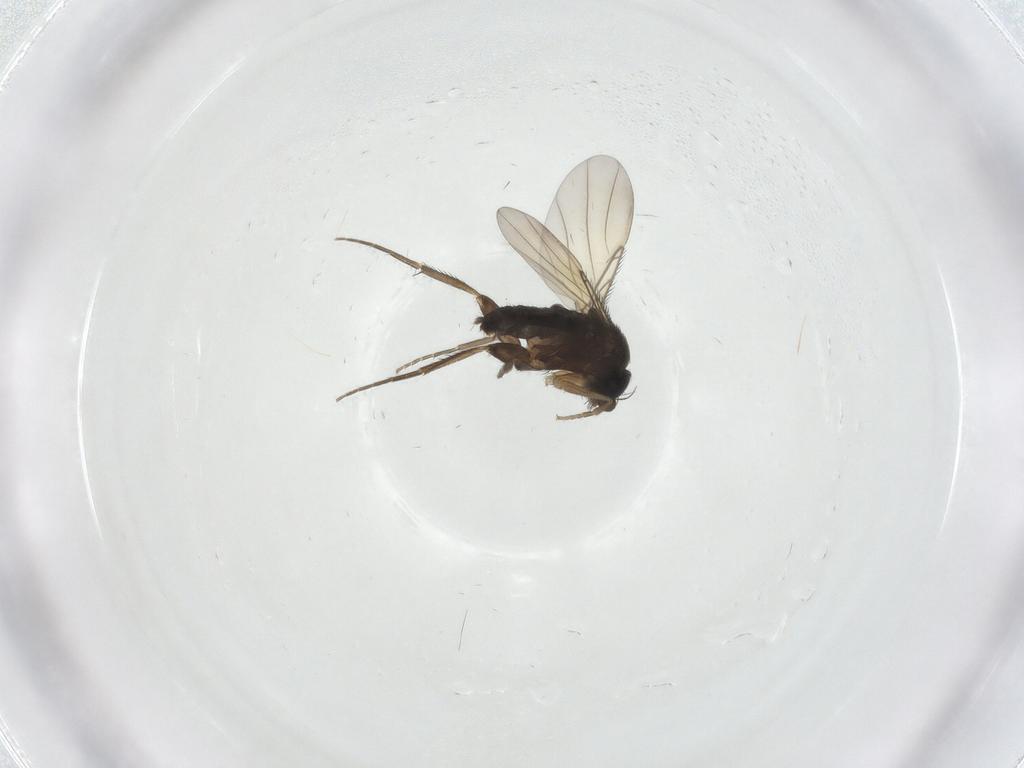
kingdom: Animalia
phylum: Arthropoda
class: Insecta
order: Diptera
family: Phoridae
